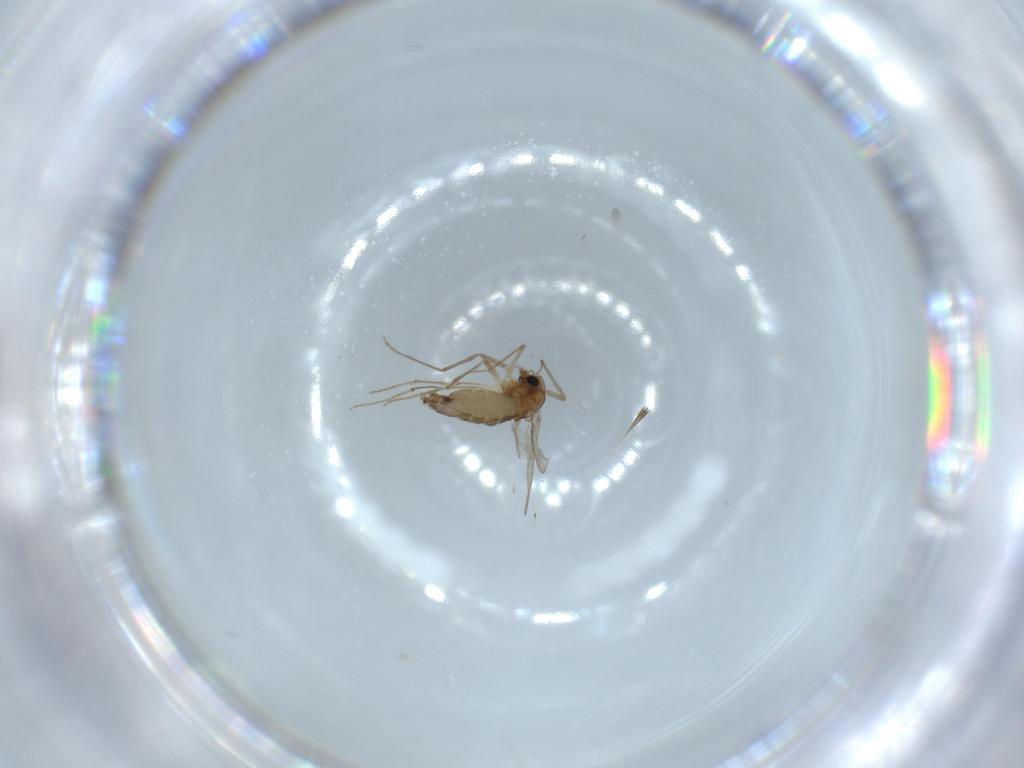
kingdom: Animalia
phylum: Arthropoda
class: Insecta
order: Diptera
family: Chironomidae
